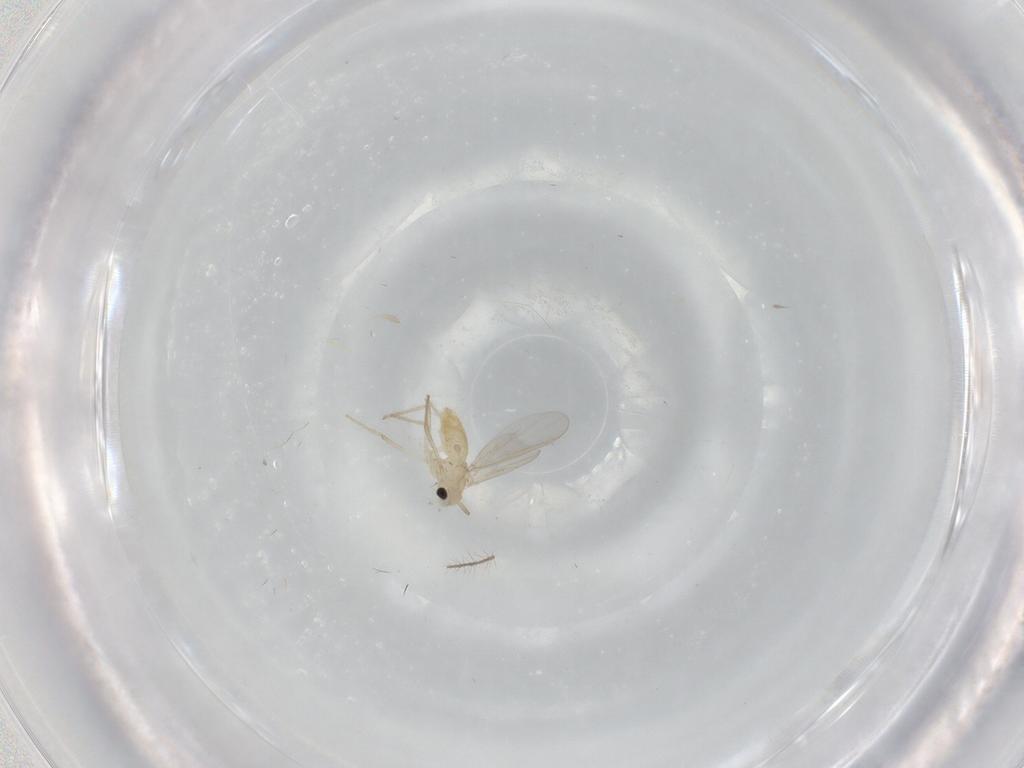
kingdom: Animalia
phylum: Arthropoda
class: Insecta
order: Diptera
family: Chironomidae
